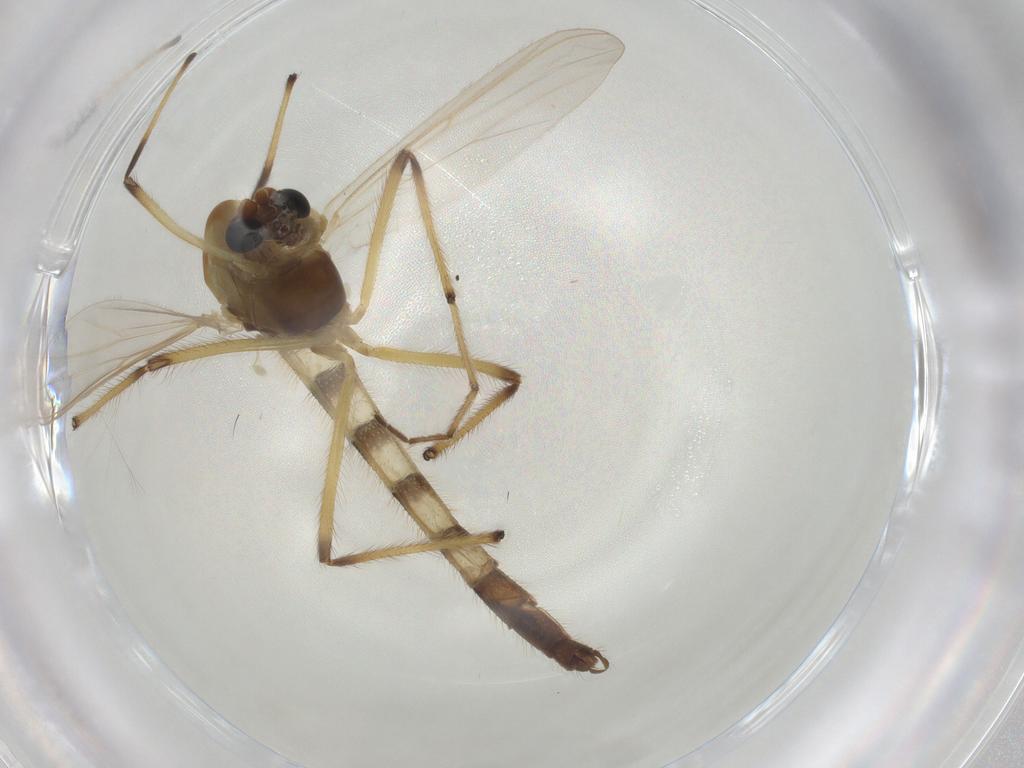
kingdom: Animalia
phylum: Arthropoda
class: Insecta
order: Diptera
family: Chironomidae
